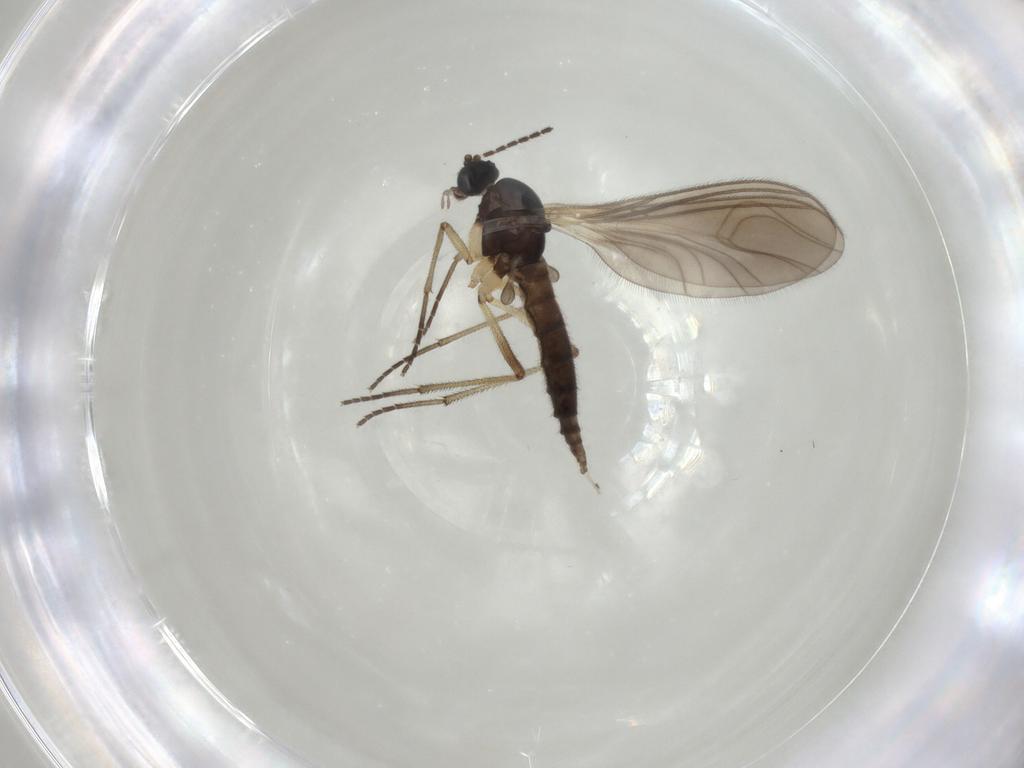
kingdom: Animalia
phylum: Arthropoda
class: Insecta
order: Diptera
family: Sciaridae
